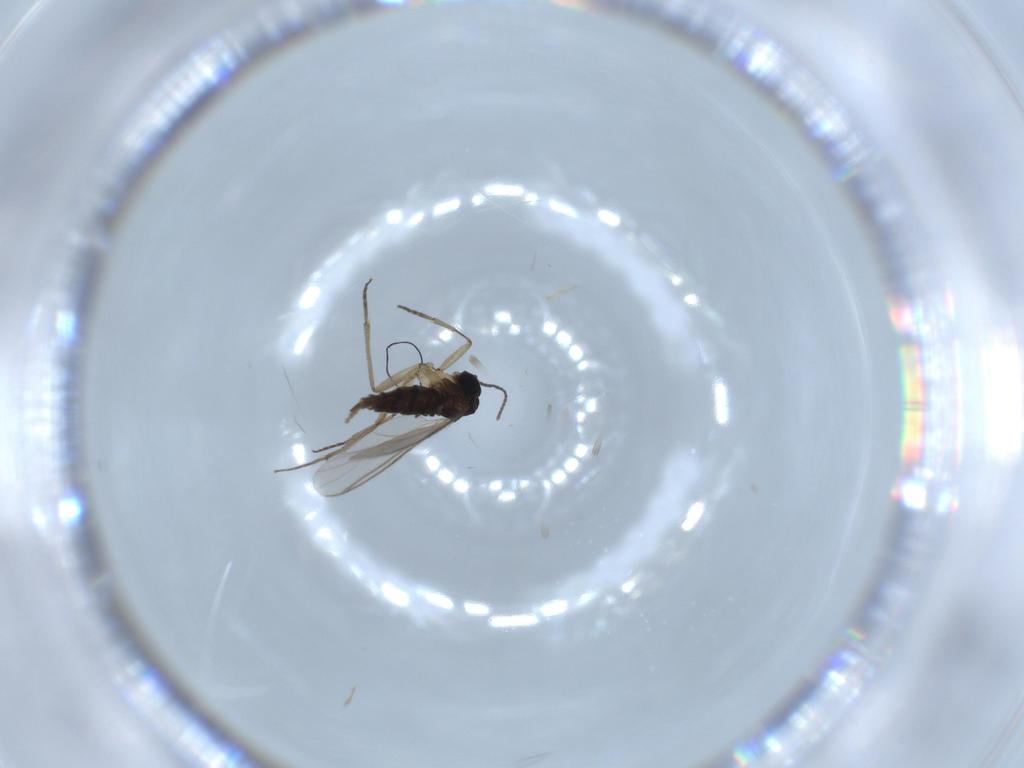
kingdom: Animalia
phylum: Arthropoda
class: Insecta
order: Diptera
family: Sciaridae
